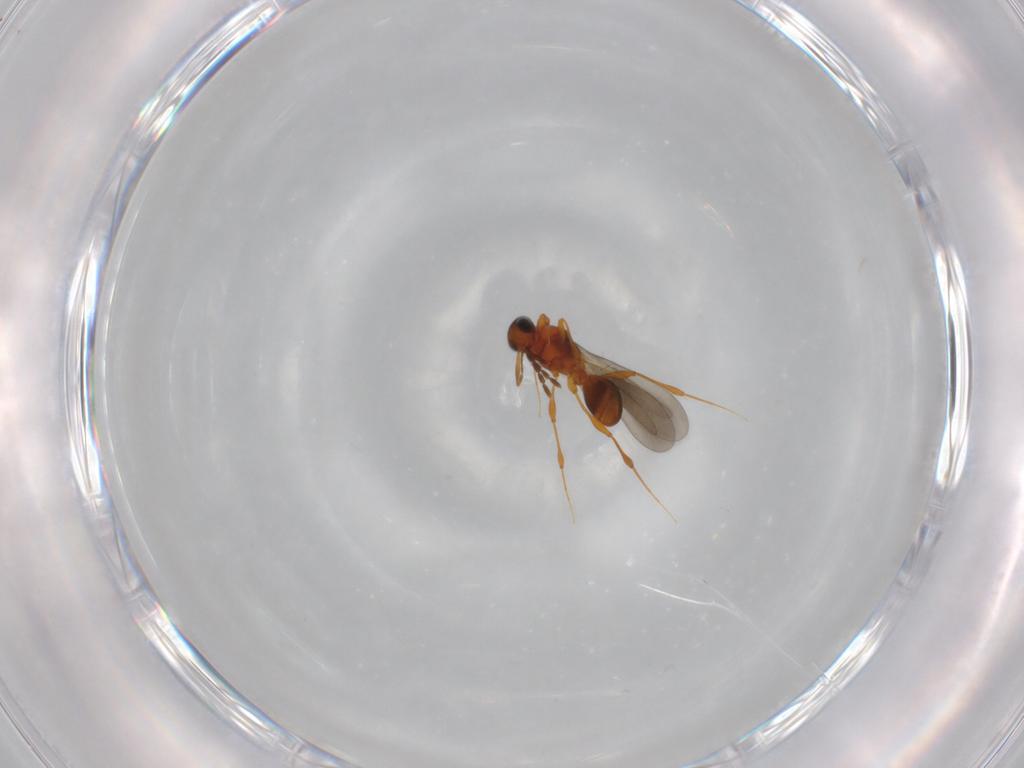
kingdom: Animalia
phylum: Arthropoda
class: Insecta
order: Hymenoptera
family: Platygastridae
